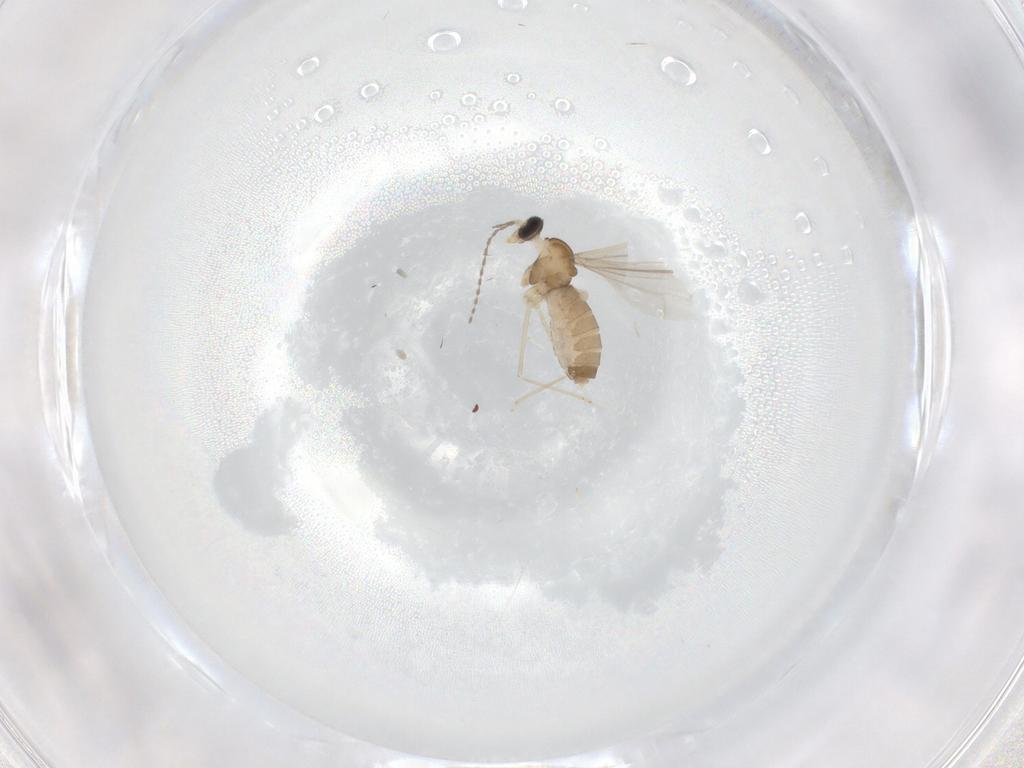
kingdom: Animalia
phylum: Arthropoda
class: Insecta
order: Diptera
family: Cecidomyiidae
